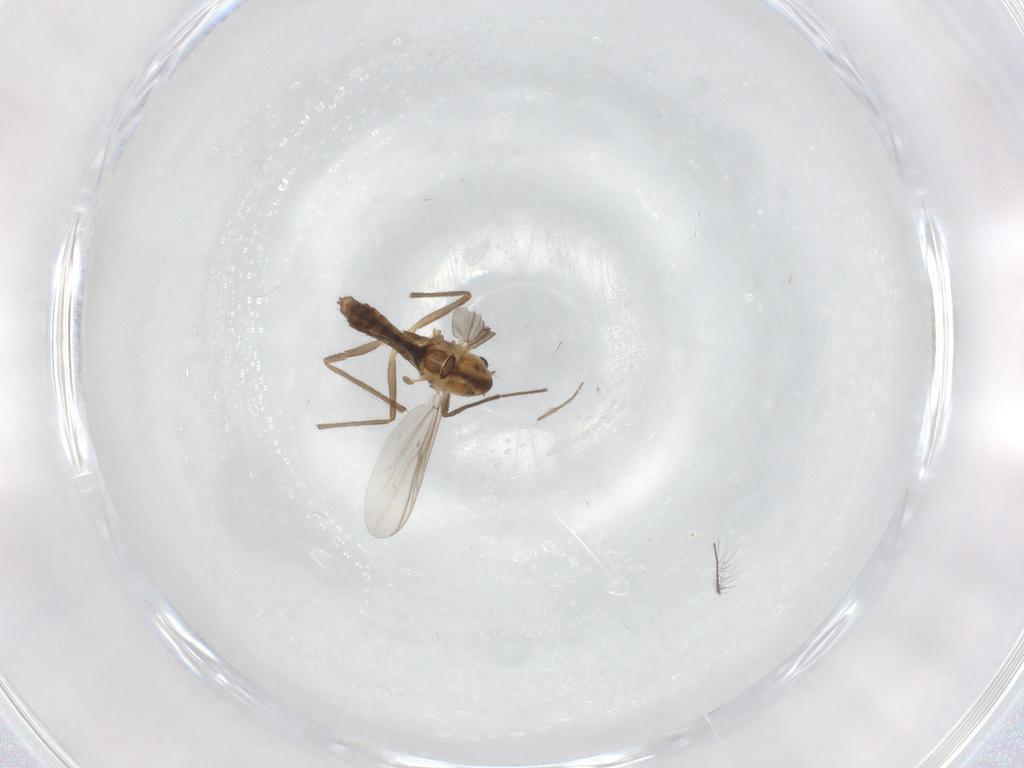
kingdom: Animalia
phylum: Arthropoda
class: Insecta
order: Diptera
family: Chironomidae
